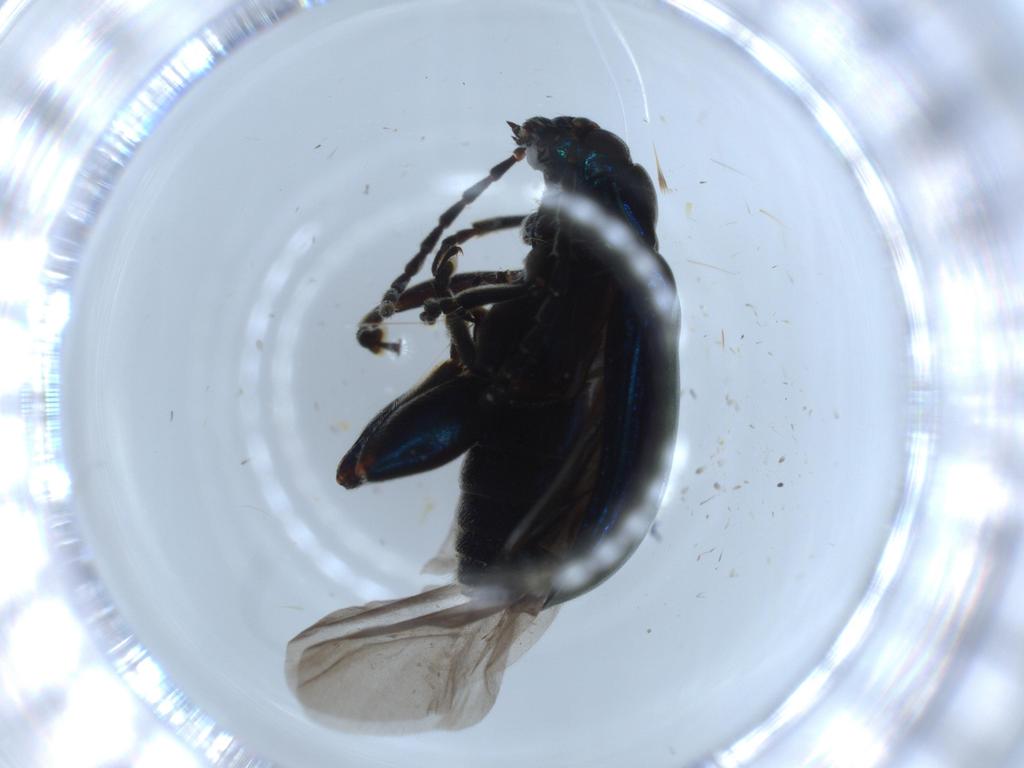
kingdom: Animalia
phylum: Arthropoda
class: Insecta
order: Coleoptera
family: Chrysomelidae
